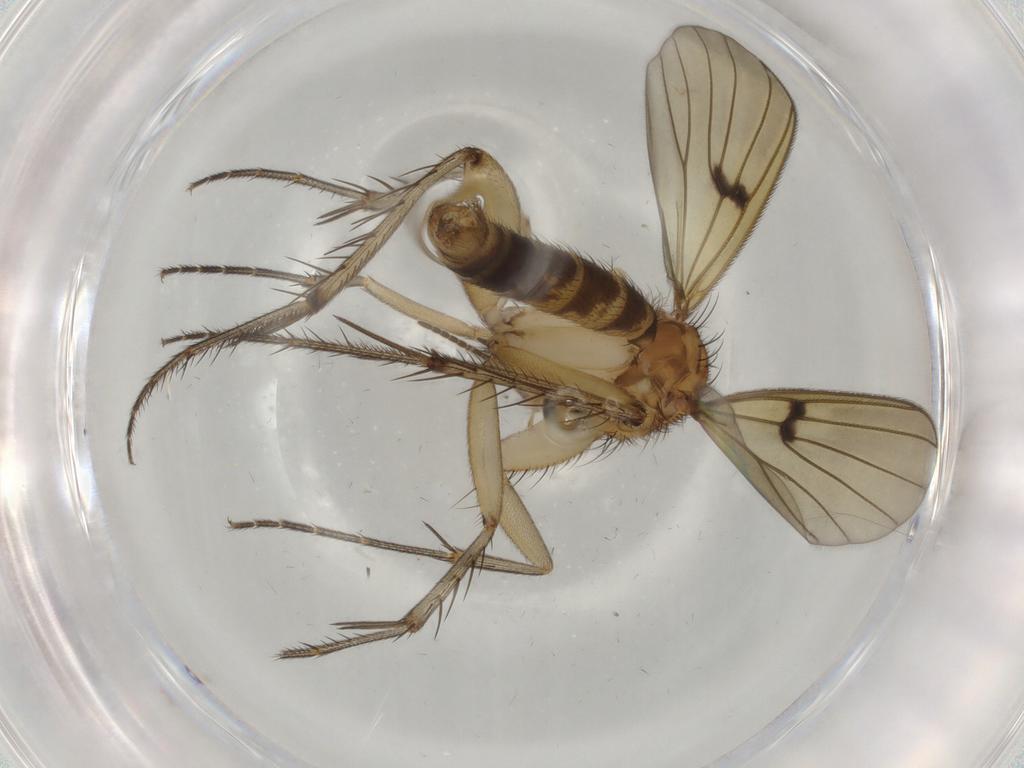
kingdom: Animalia
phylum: Arthropoda
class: Insecta
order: Diptera
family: Mycetophilidae
